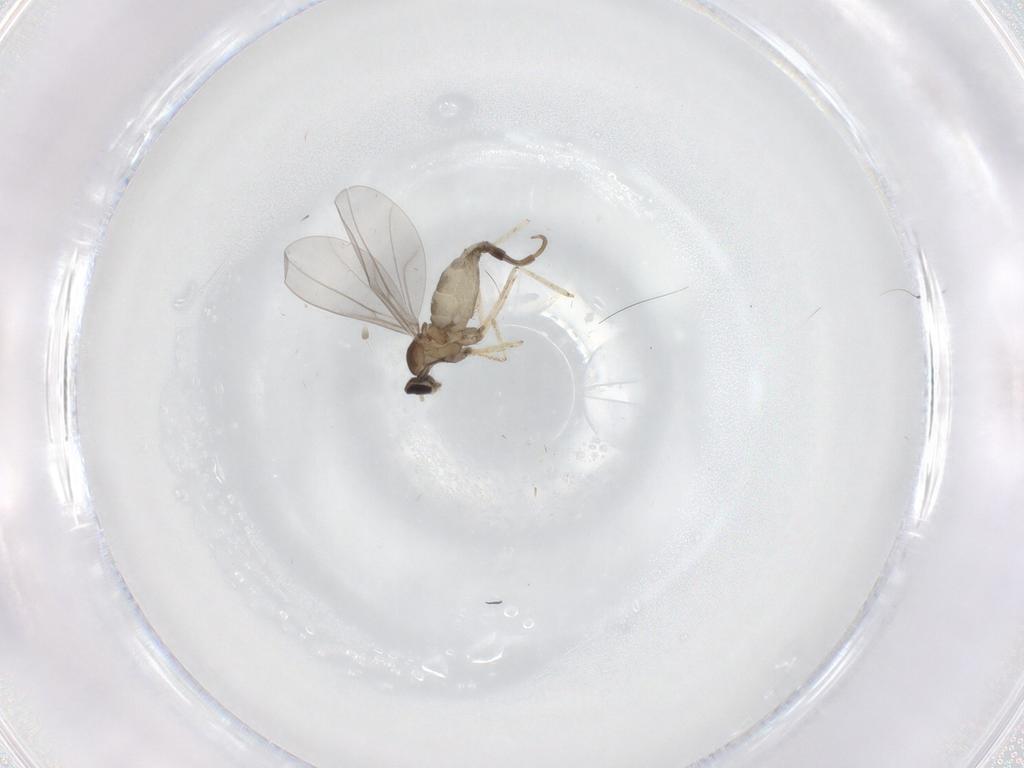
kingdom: Animalia
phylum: Arthropoda
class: Insecta
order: Diptera
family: Cecidomyiidae
